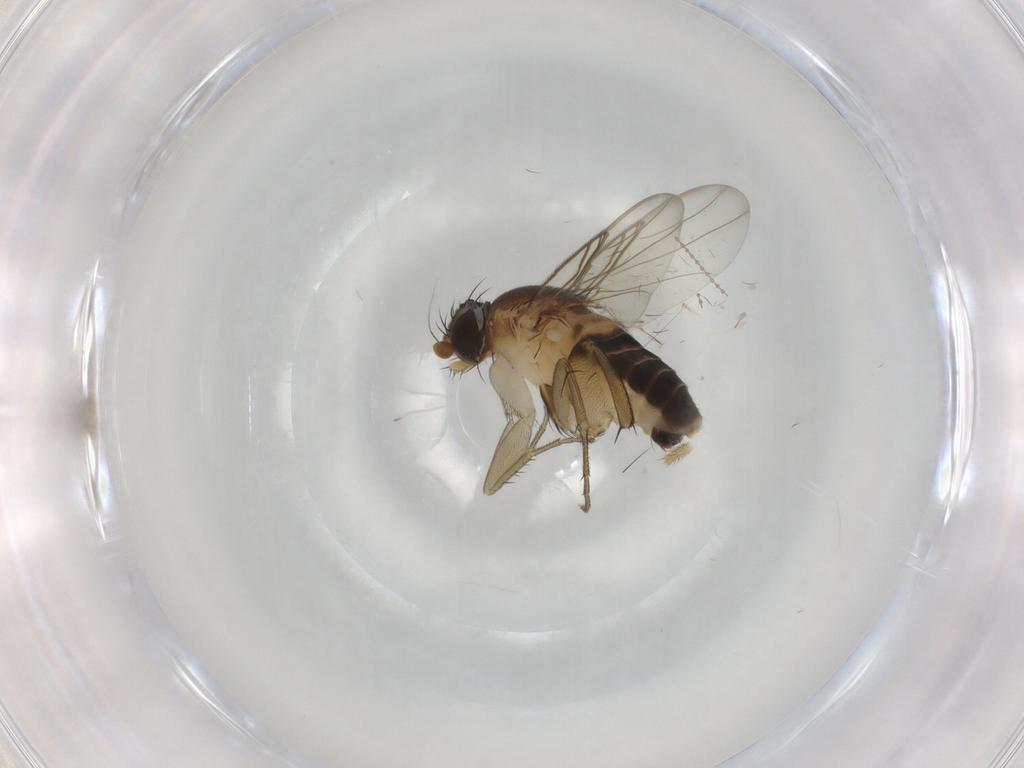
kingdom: Animalia
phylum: Arthropoda
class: Insecta
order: Diptera
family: Phoridae
